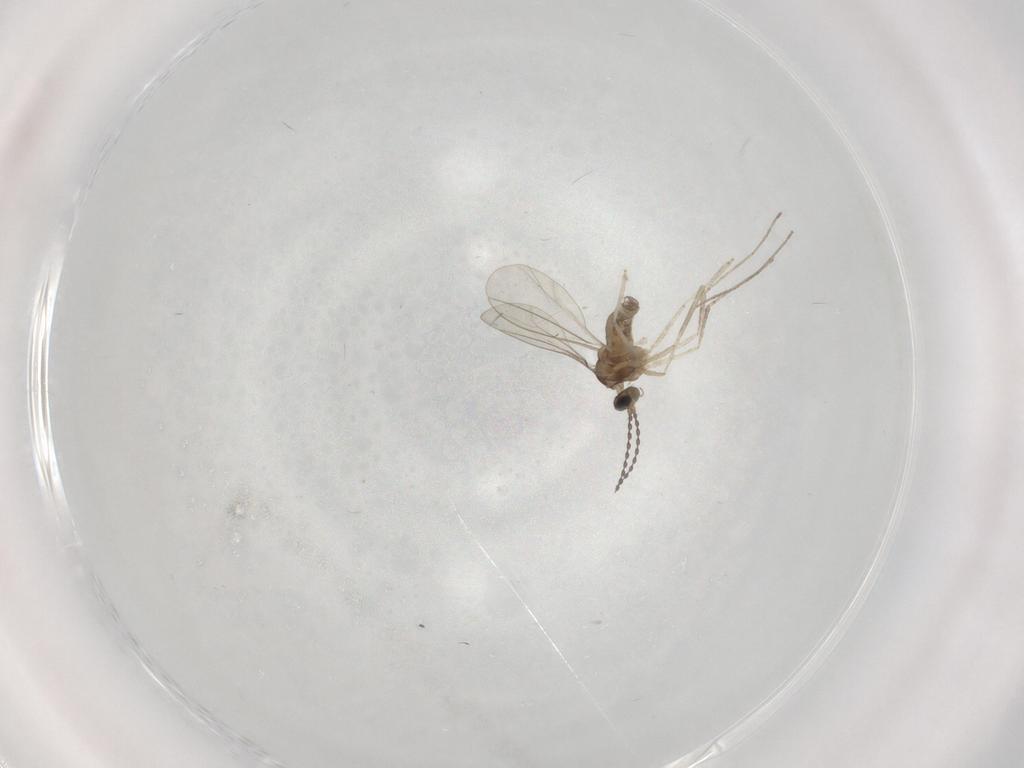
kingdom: Animalia
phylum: Arthropoda
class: Insecta
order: Diptera
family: Cecidomyiidae
